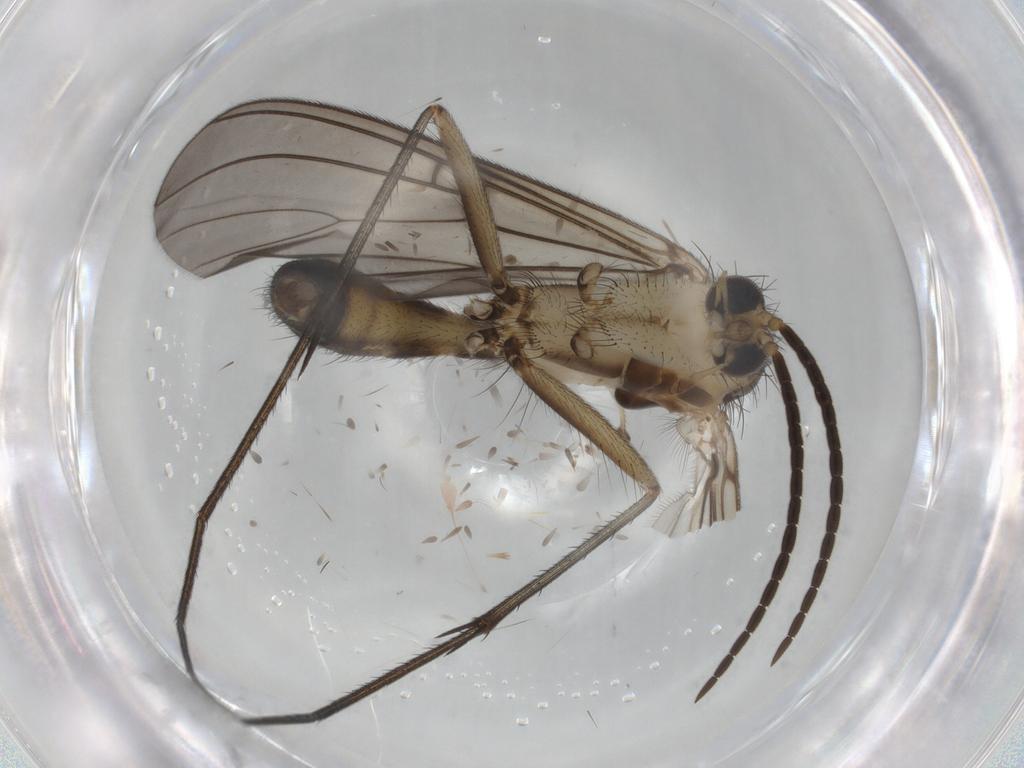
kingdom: Animalia
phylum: Arthropoda
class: Insecta
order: Diptera
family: Mycetophilidae
